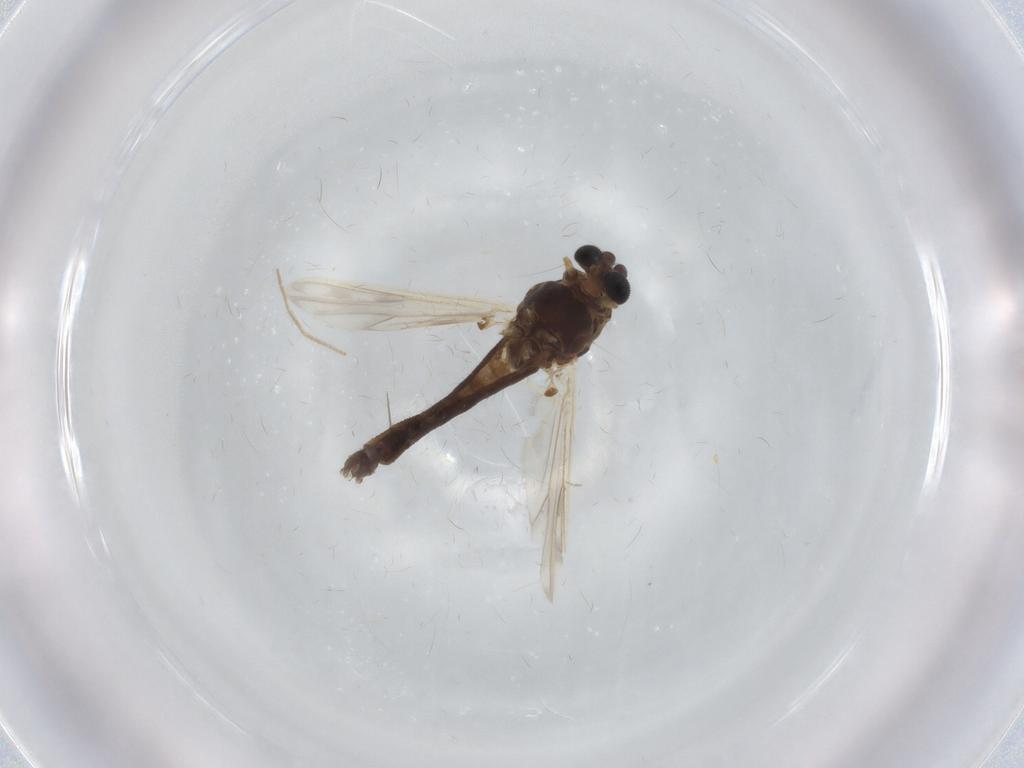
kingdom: Animalia
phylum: Arthropoda
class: Insecta
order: Diptera
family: Chironomidae
